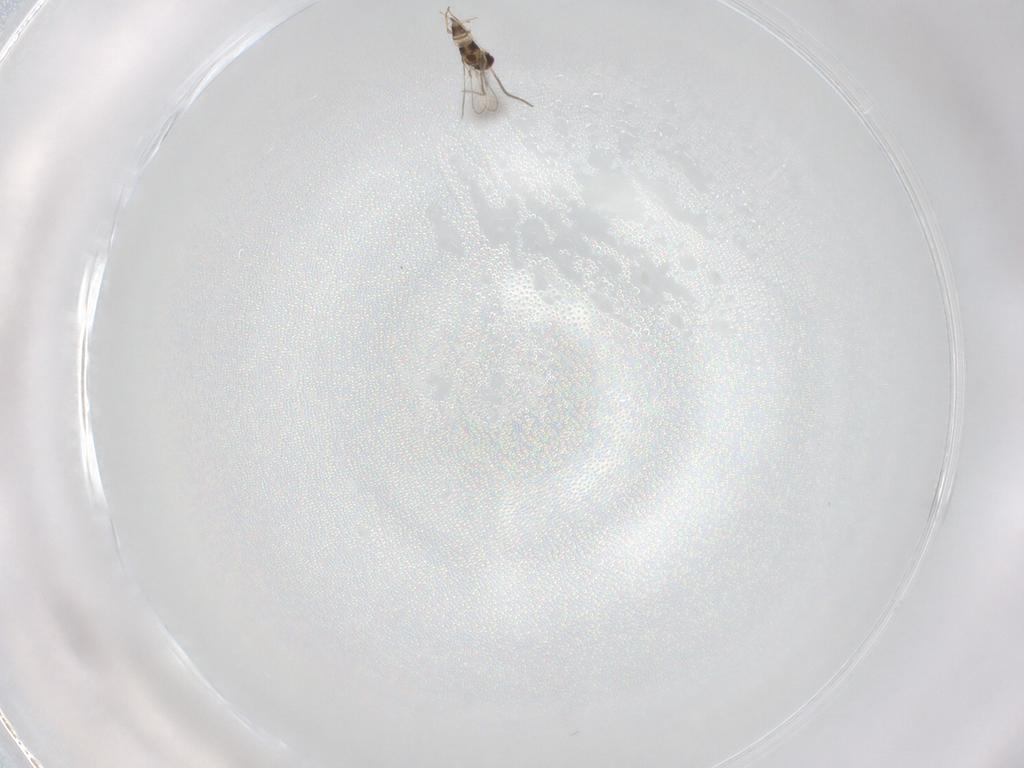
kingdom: Animalia
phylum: Arthropoda
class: Insecta
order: Hymenoptera
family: Mymaridae
